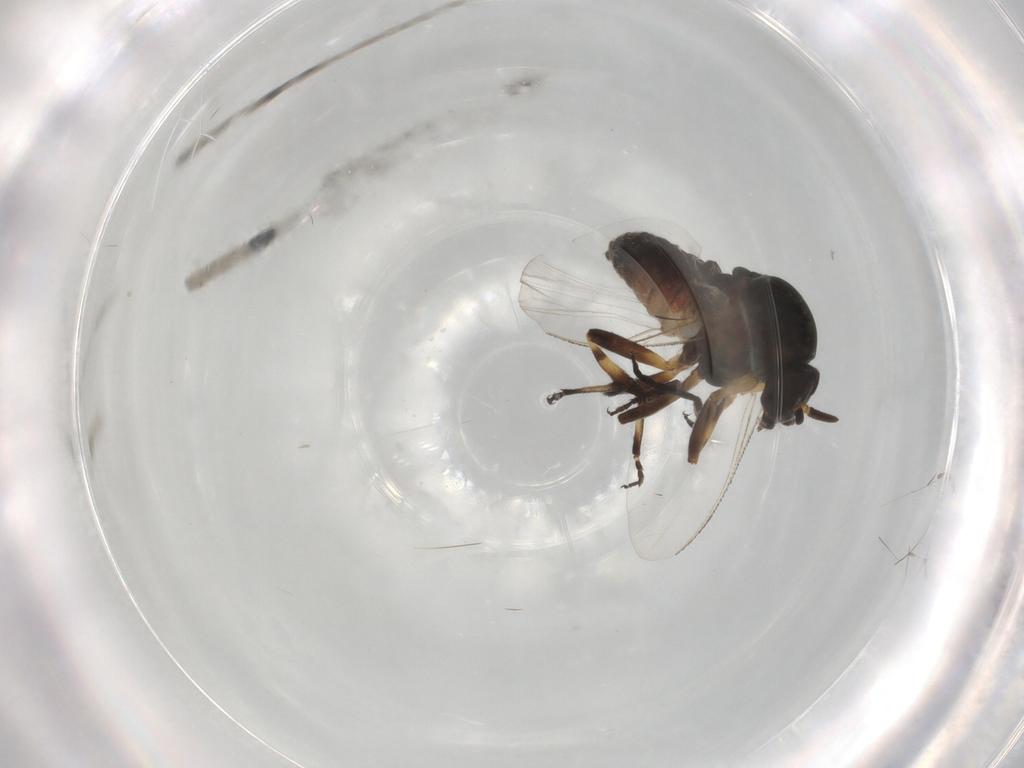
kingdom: Animalia
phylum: Arthropoda
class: Insecta
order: Diptera
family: Simuliidae
